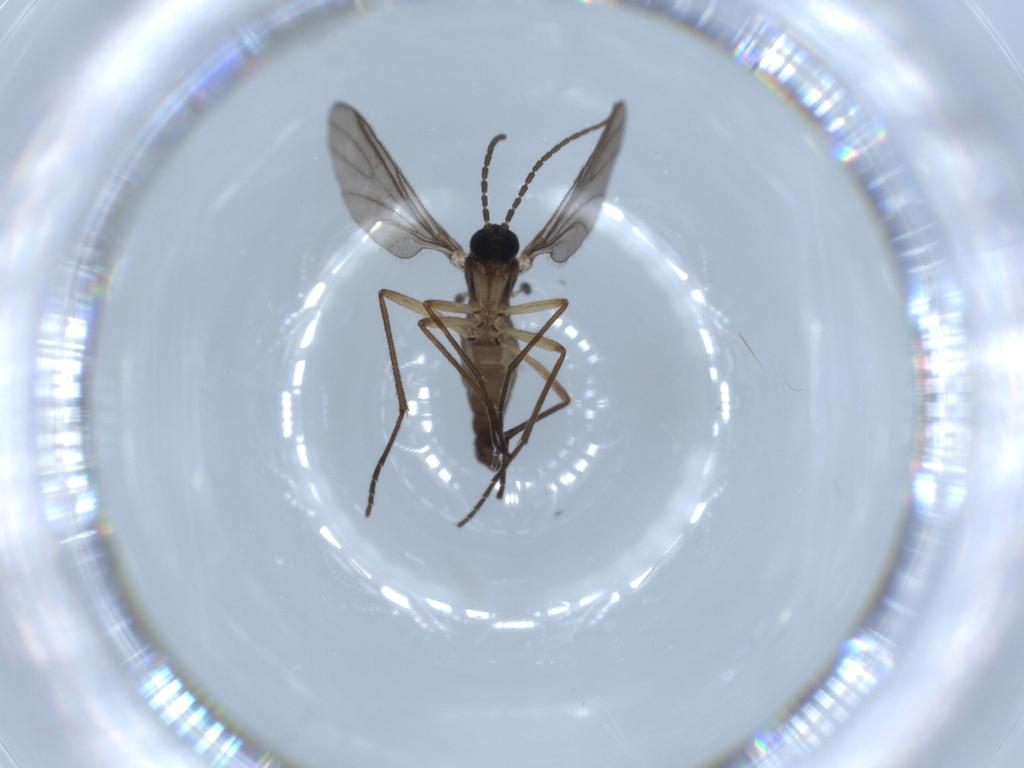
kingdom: Animalia
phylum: Arthropoda
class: Insecta
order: Diptera
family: Sciaridae
